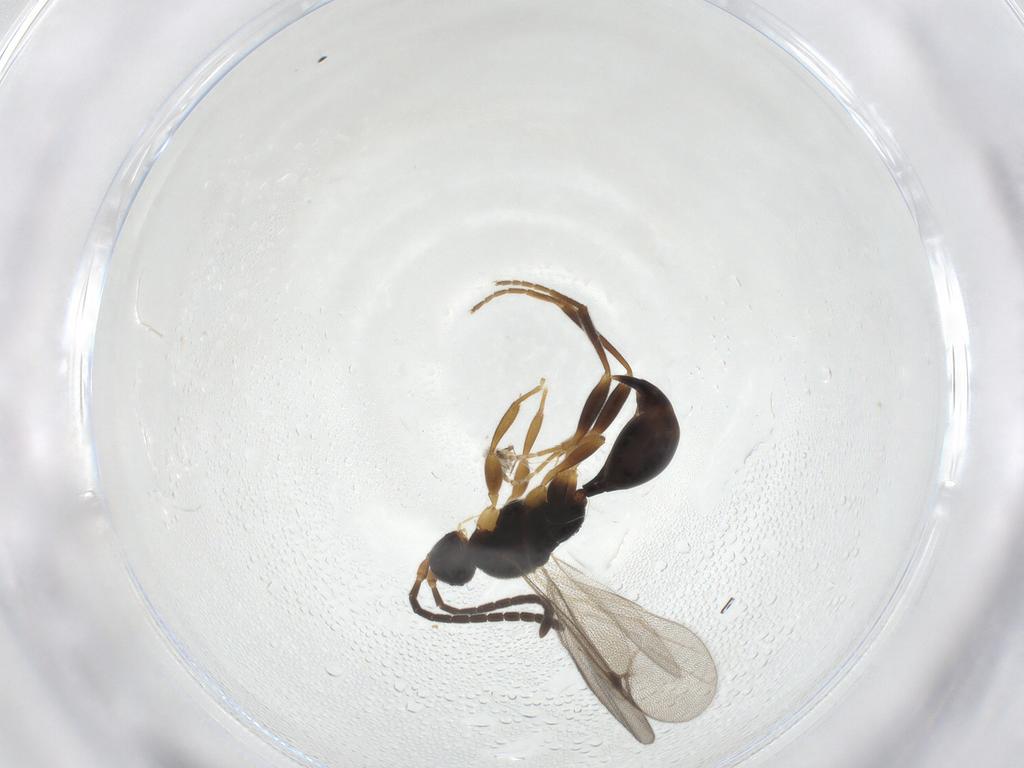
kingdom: Animalia
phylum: Arthropoda
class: Insecta
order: Hymenoptera
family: Proctotrupidae
